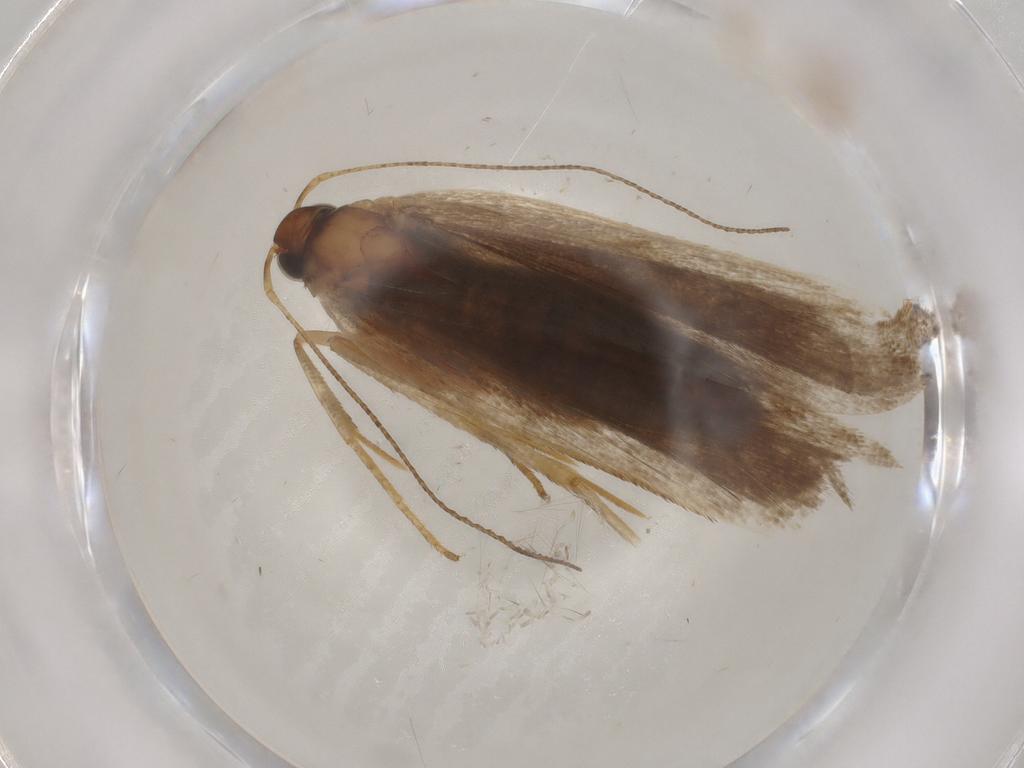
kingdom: Animalia
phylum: Arthropoda
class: Insecta
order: Lepidoptera
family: Gelechiidae
